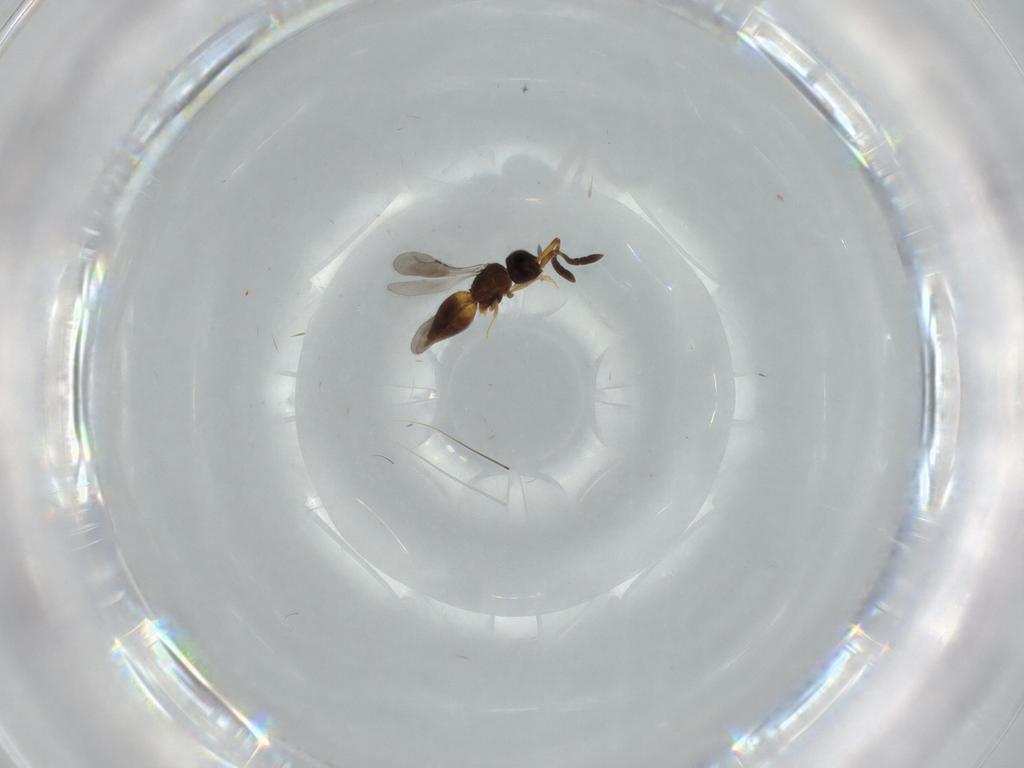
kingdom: Animalia
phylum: Arthropoda
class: Insecta
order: Hymenoptera
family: Ceraphronidae
